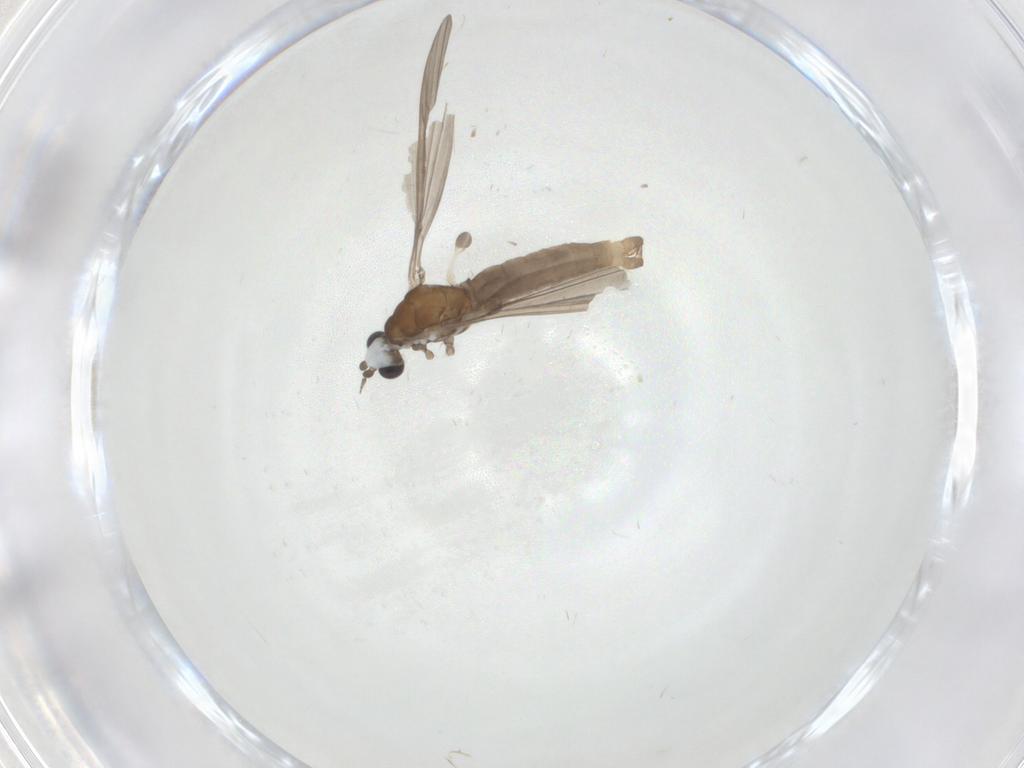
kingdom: Animalia
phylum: Arthropoda
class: Insecta
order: Diptera
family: Limoniidae
